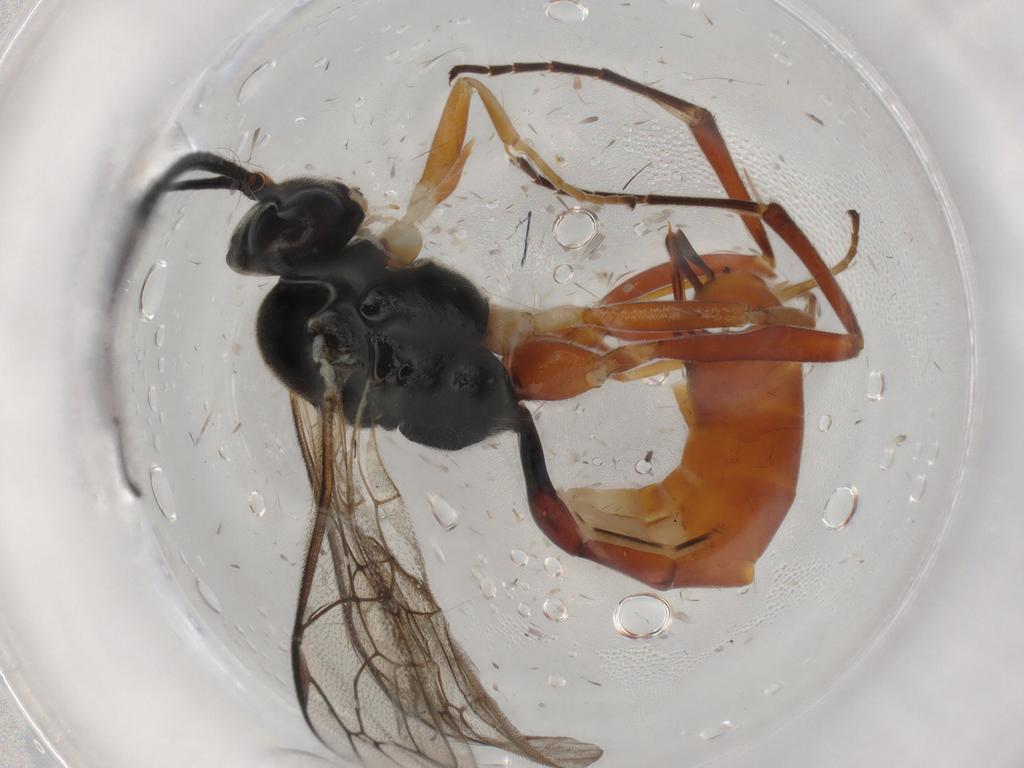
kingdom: Animalia
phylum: Arthropoda
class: Insecta
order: Hymenoptera
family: Ichneumonidae
